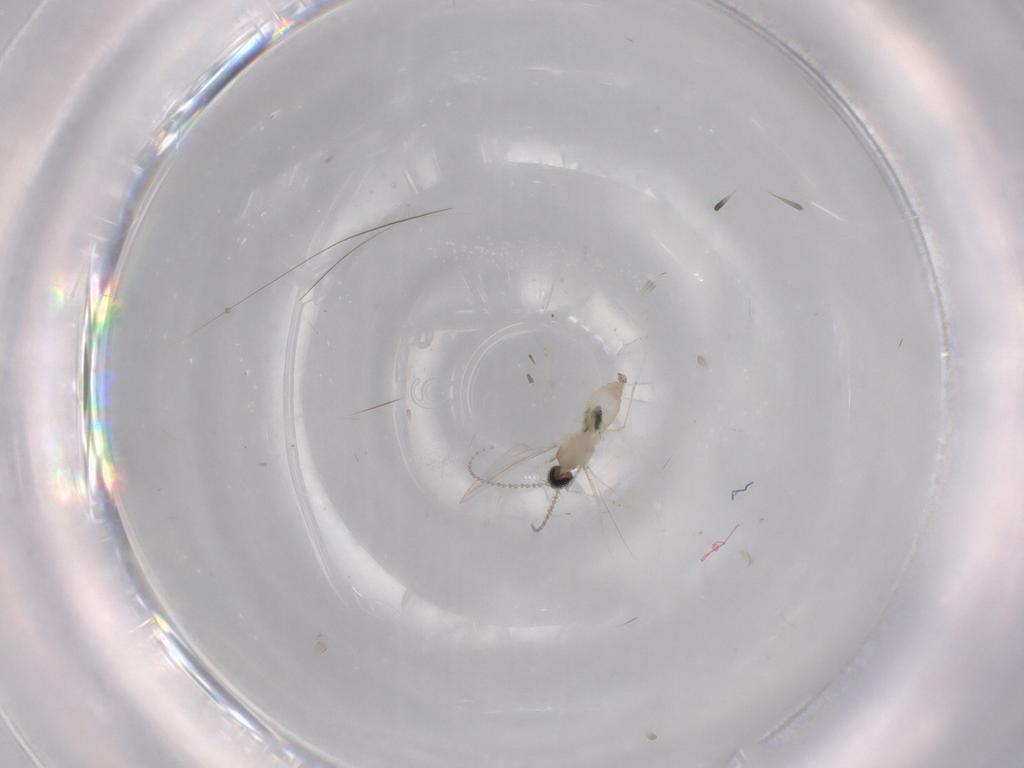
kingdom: Animalia
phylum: Arthropoda
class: Insecta
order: Diptera
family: Cecidomyiidae
